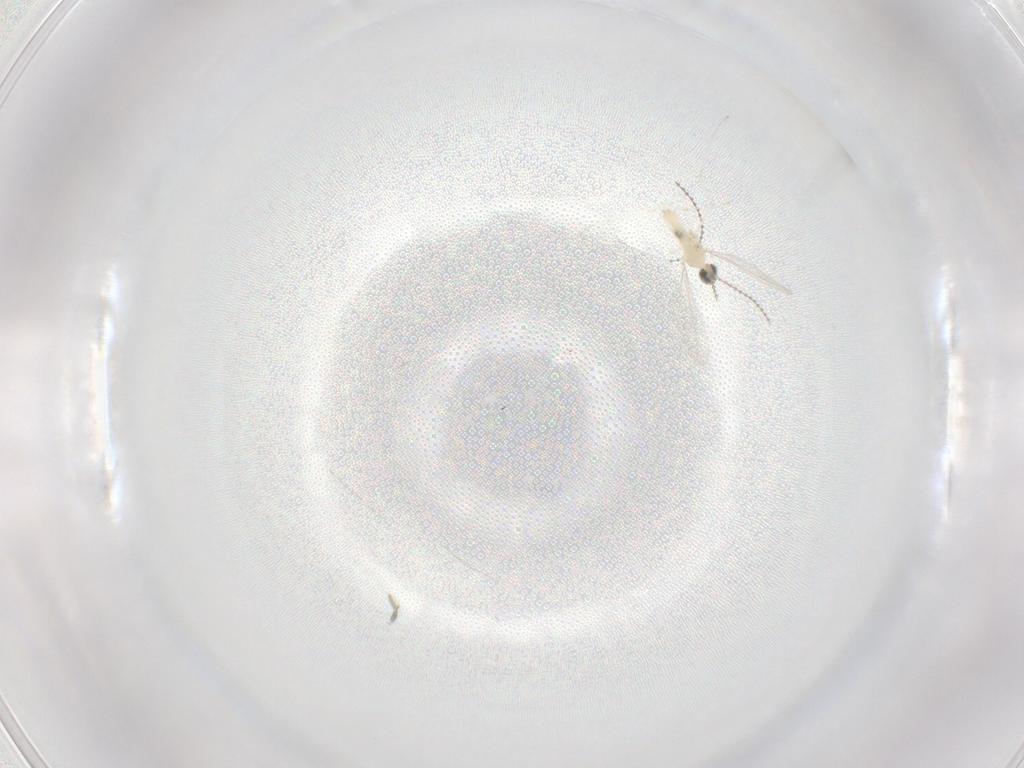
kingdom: Animalia
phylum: Arthropoda
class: Insecta
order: Diptera
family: Cecidomyiidae
